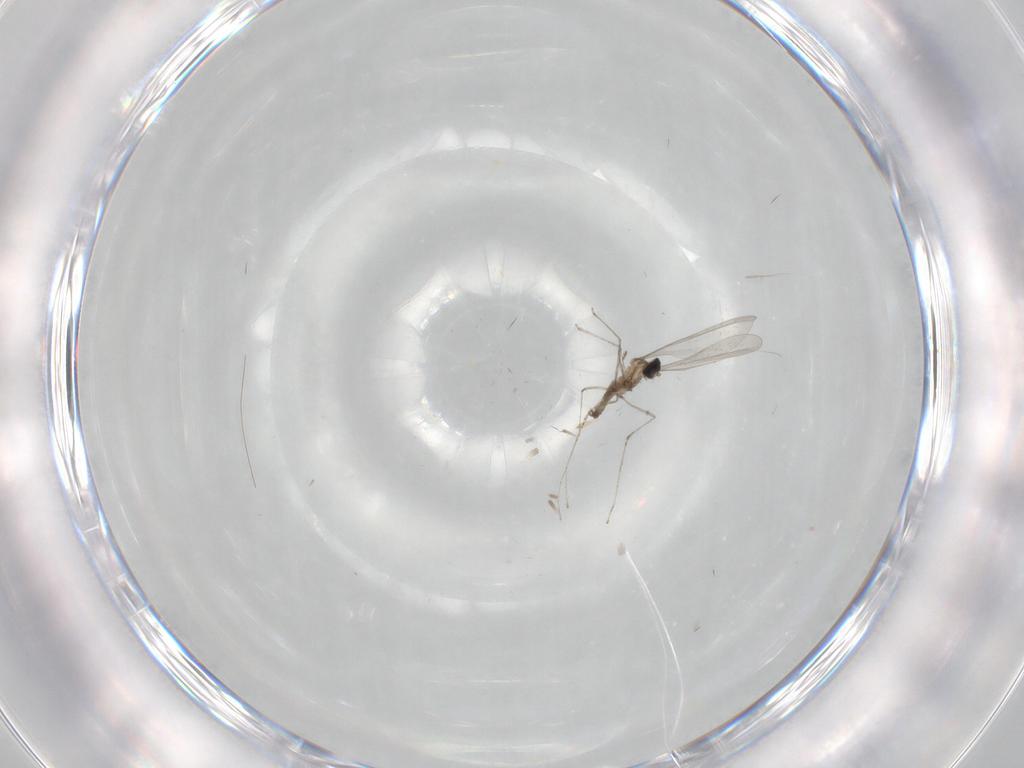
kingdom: Animalia
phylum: Arthropoda
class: Insecta
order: Diptera
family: Cecidomyiidae
